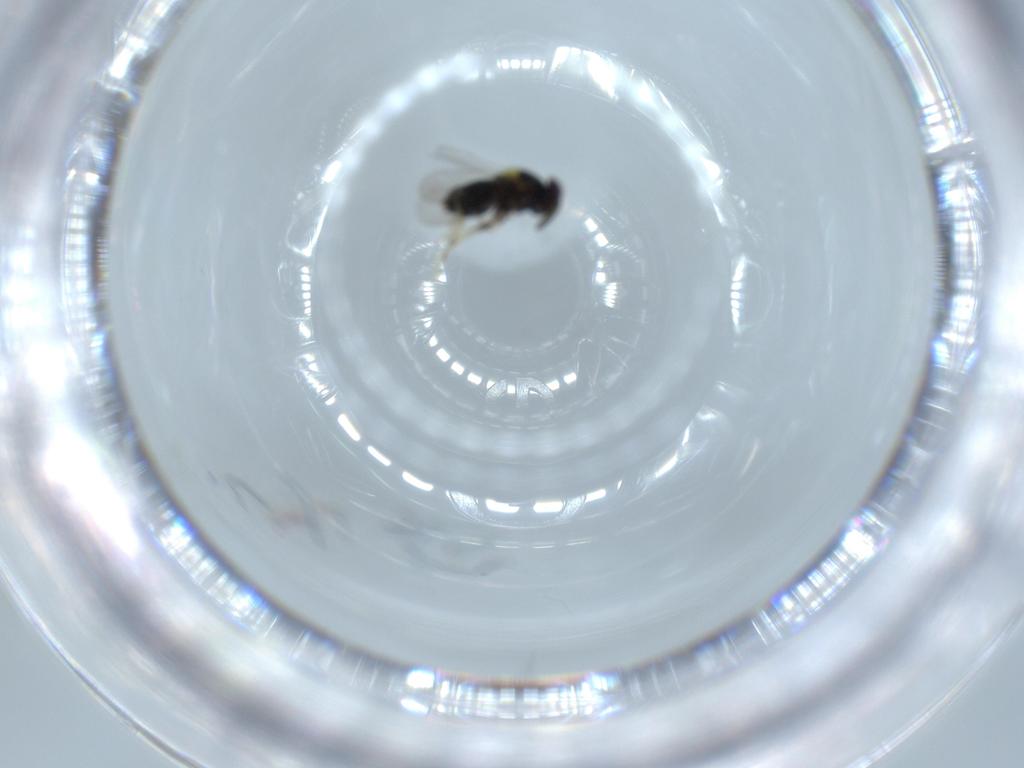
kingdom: Animalia
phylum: Arthropoda
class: Insecta
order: Hymenoptera
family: Aphelinidae
